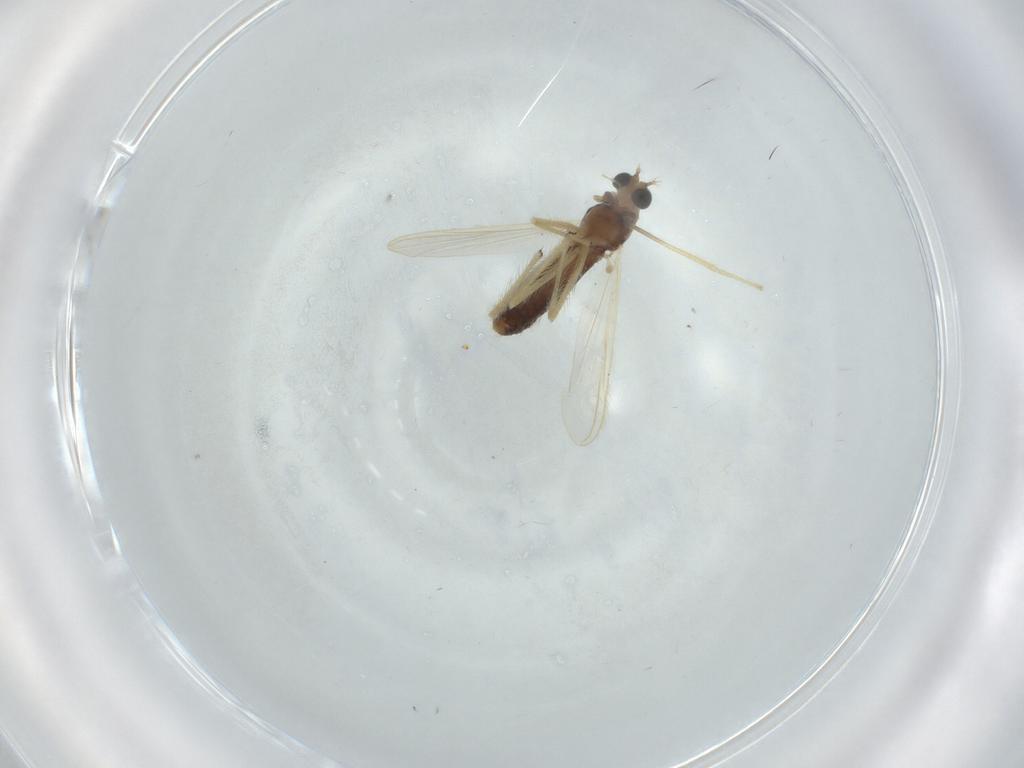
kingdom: Animalia
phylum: Arthropoda
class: Insecta
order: Diptera
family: Chironomidae
